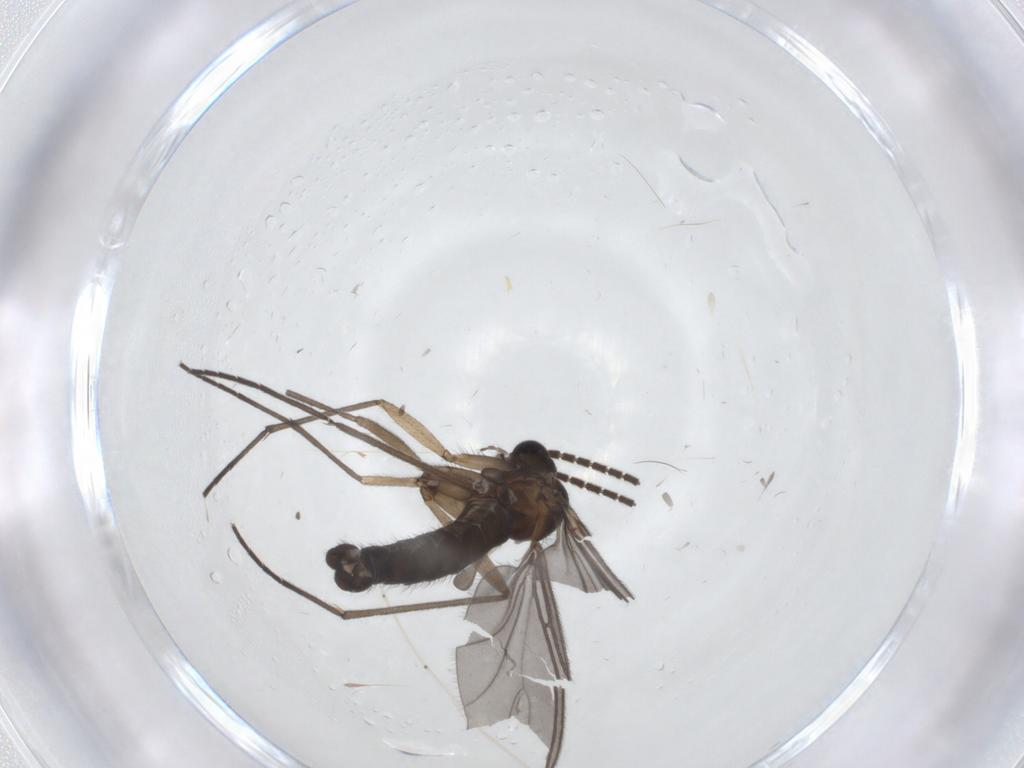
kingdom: Animalia
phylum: Arthropoda
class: Insecta
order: Diptera
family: Sciaridae
